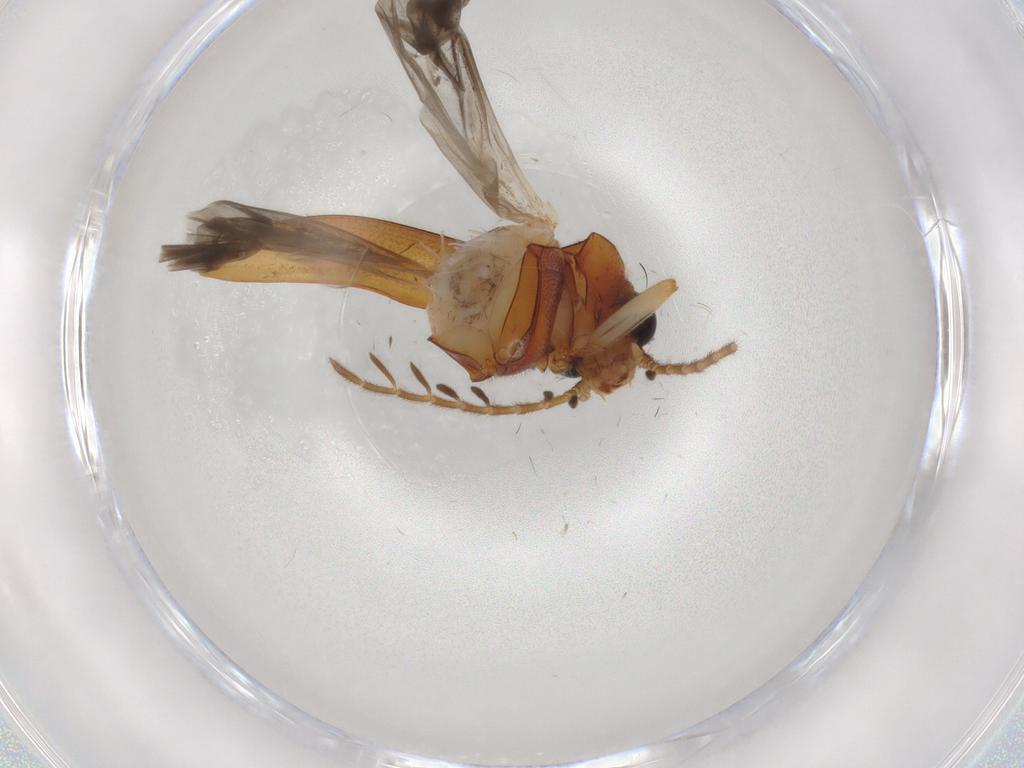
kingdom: Animalia
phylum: Arthropoda
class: Insecta
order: Coleoptera
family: Ptilodactylidae
